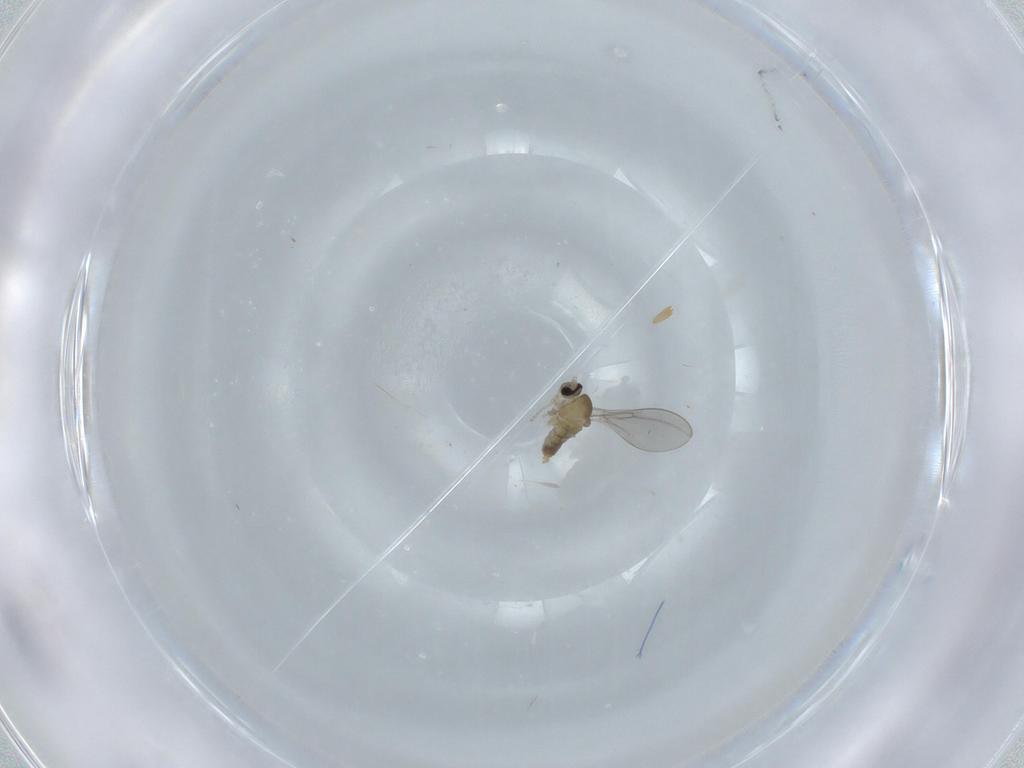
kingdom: Animalia
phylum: Arthropoda
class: Insecta
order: Diptera
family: Cecidomyiidae
